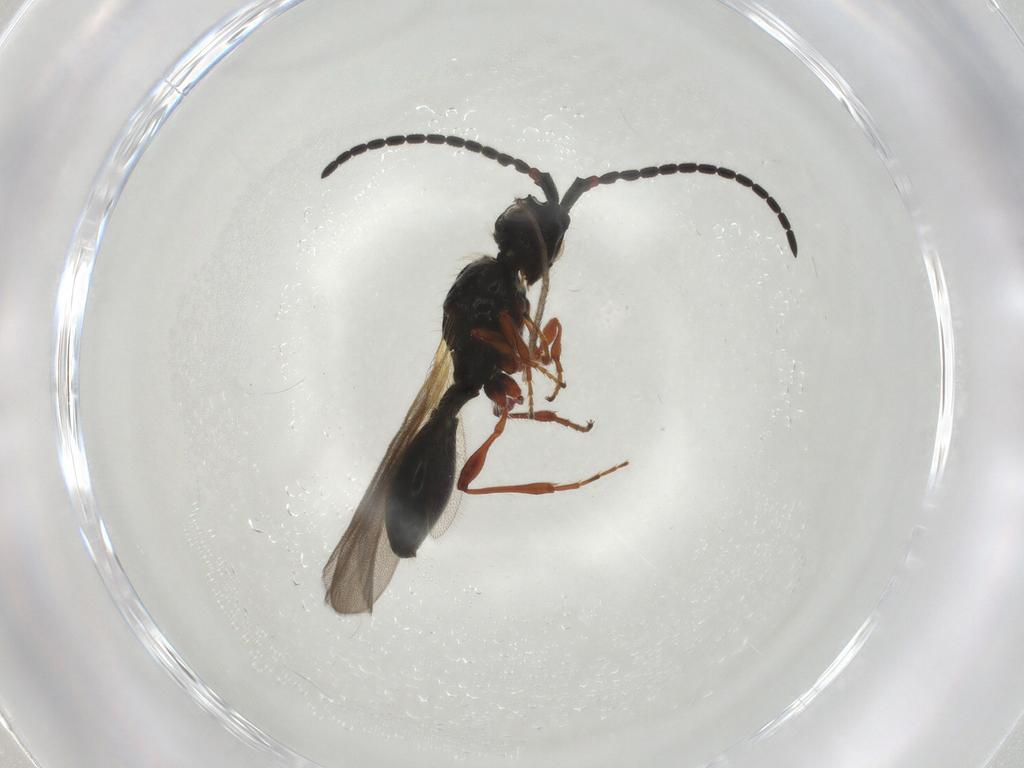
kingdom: Animalia
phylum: Arthropoda
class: Insecta
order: Hymenoptera
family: Diapriidae
